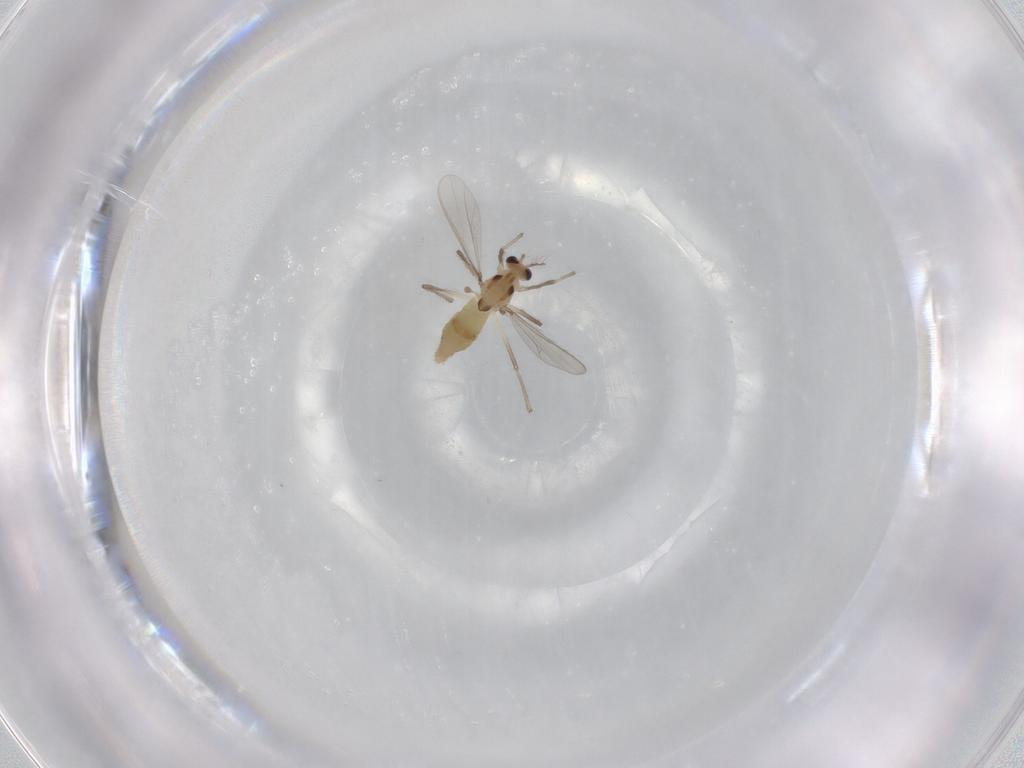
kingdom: Animalia
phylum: Arthropoda
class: Insecta
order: Diptera
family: Chironomidae
